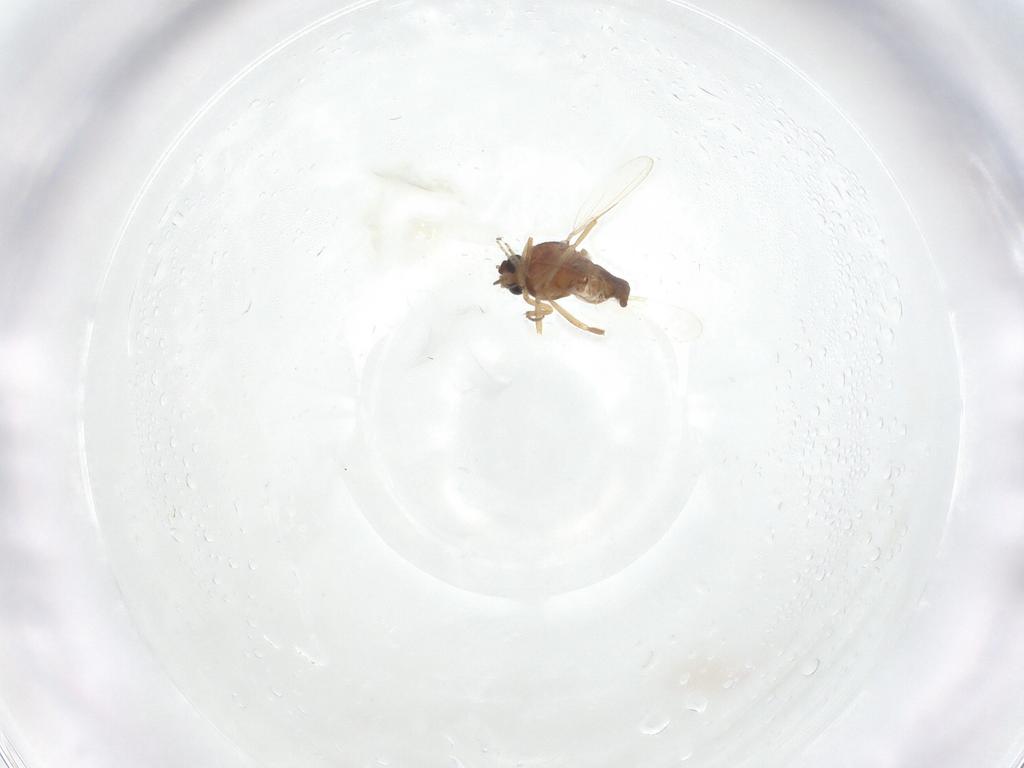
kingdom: Animalia
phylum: Arthropoda
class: Insecta
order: Diptera
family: Ceratopogonidae
